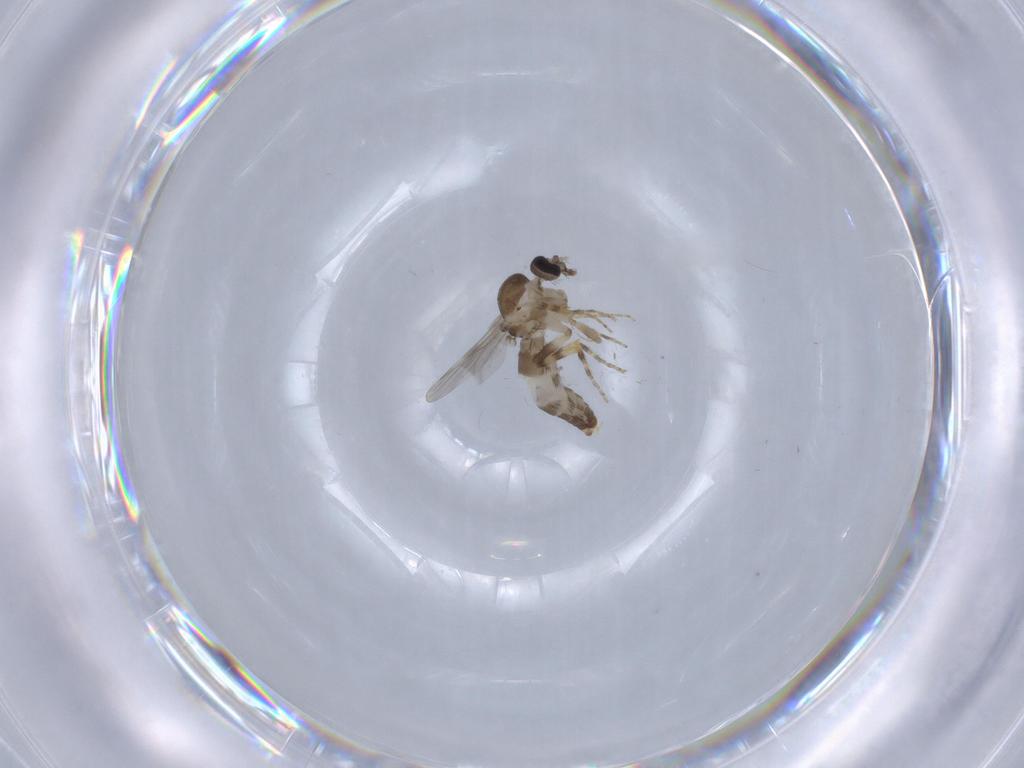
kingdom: Animalia
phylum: Arthropoda
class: Insecta
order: Diptera
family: Ceratopogonidae
